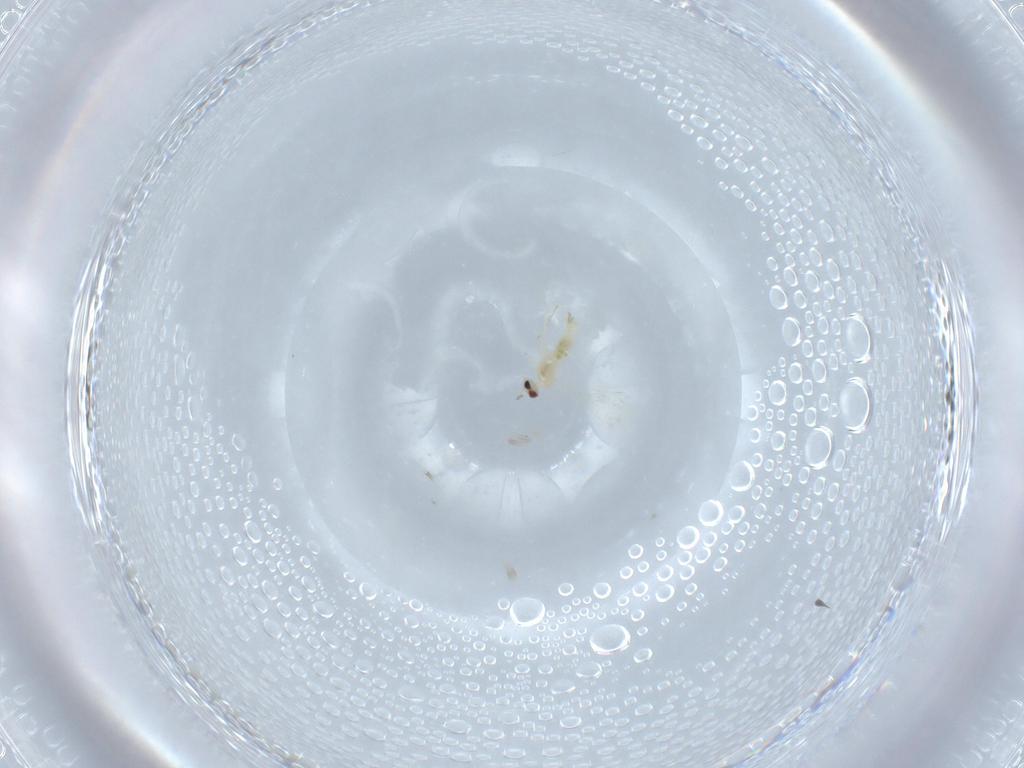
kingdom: Animalia
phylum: Arthropoda
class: Insecta
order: Diptera
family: Cecidomyiidae
